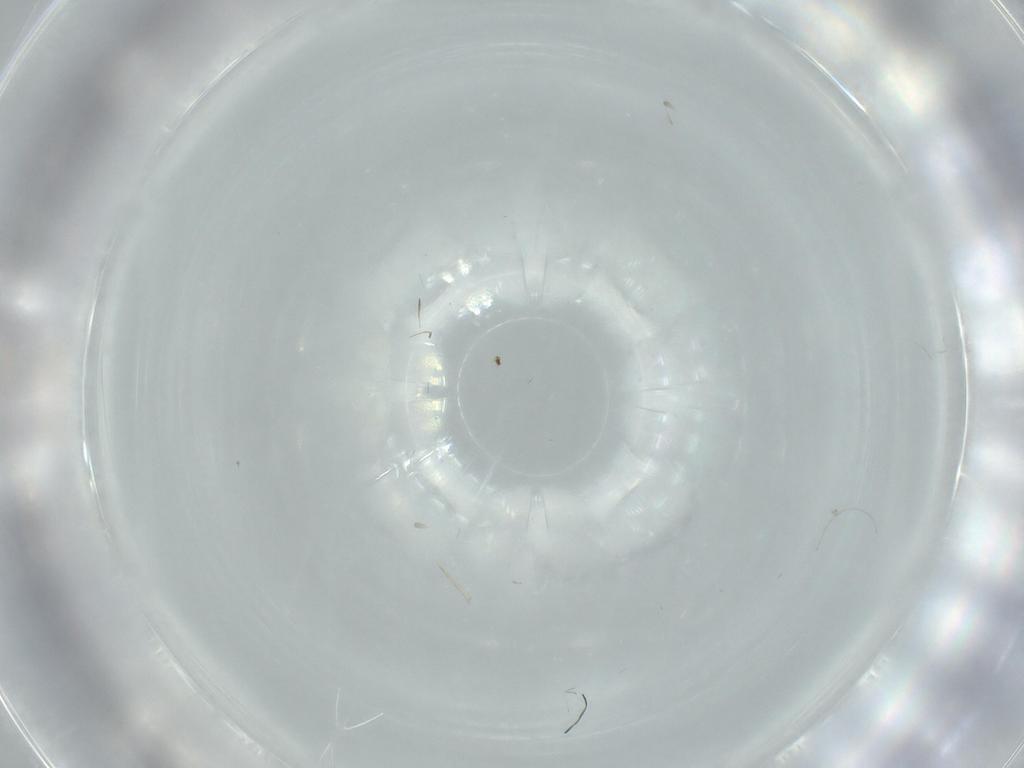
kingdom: Animalia
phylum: Arthropoda
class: Insecta
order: Diptera
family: Cecidomyiidae
